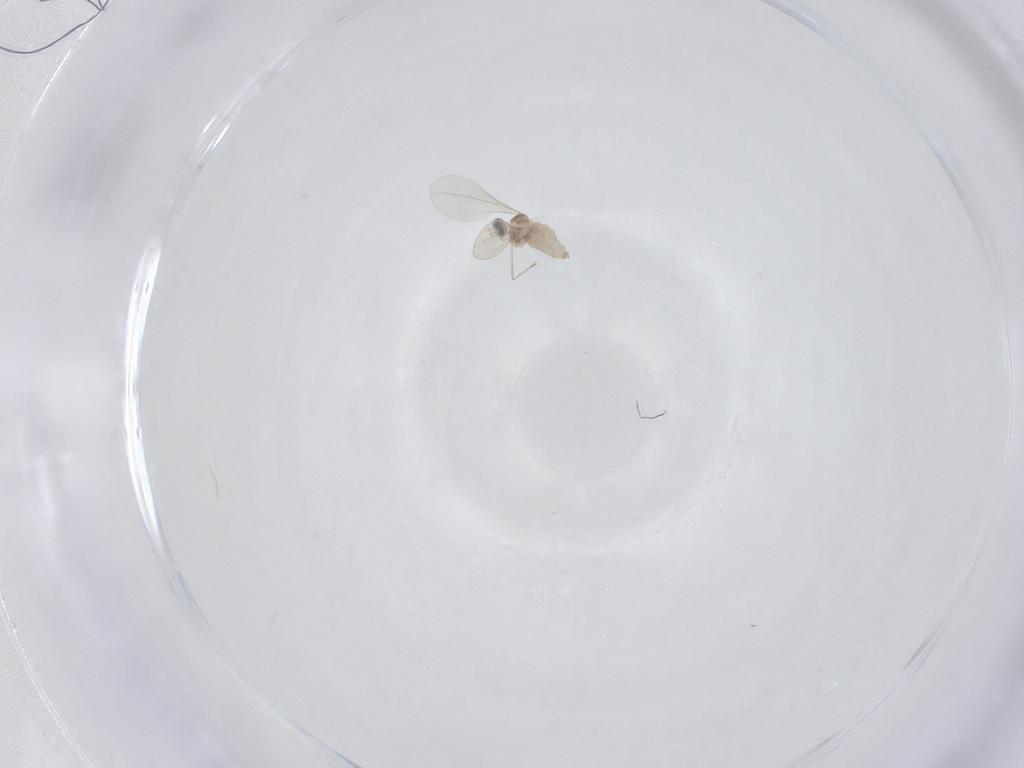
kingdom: Animalia
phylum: Arthropoda
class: Insecta
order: Diptera
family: Cecidomyiidae
